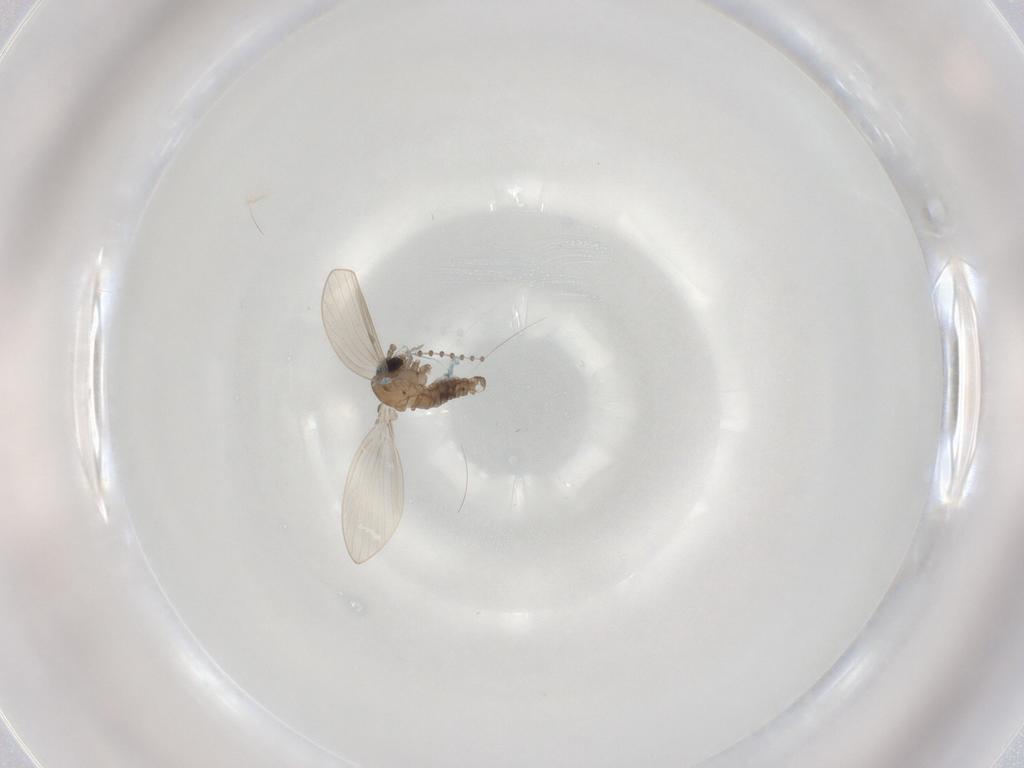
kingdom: Animalia
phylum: Arthropoda
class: Insecta
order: Diptera
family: Psychodidae
